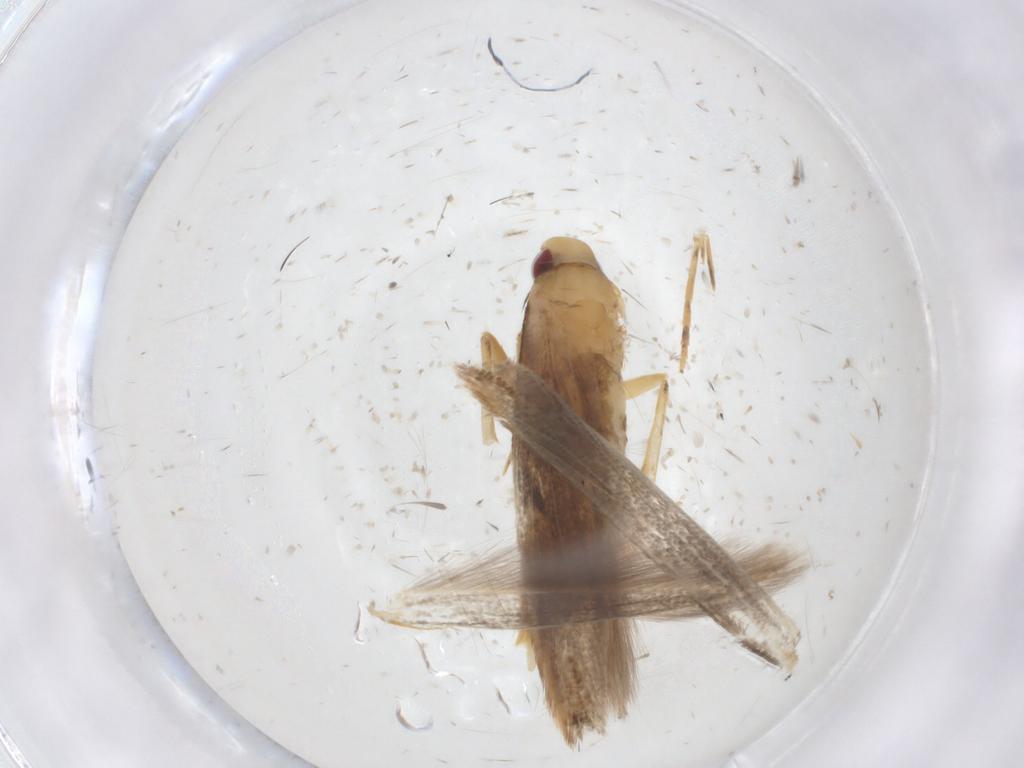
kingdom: Animalia
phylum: Arthropoda
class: Insecta
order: Lepidoptera
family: Cosmopterigidae
